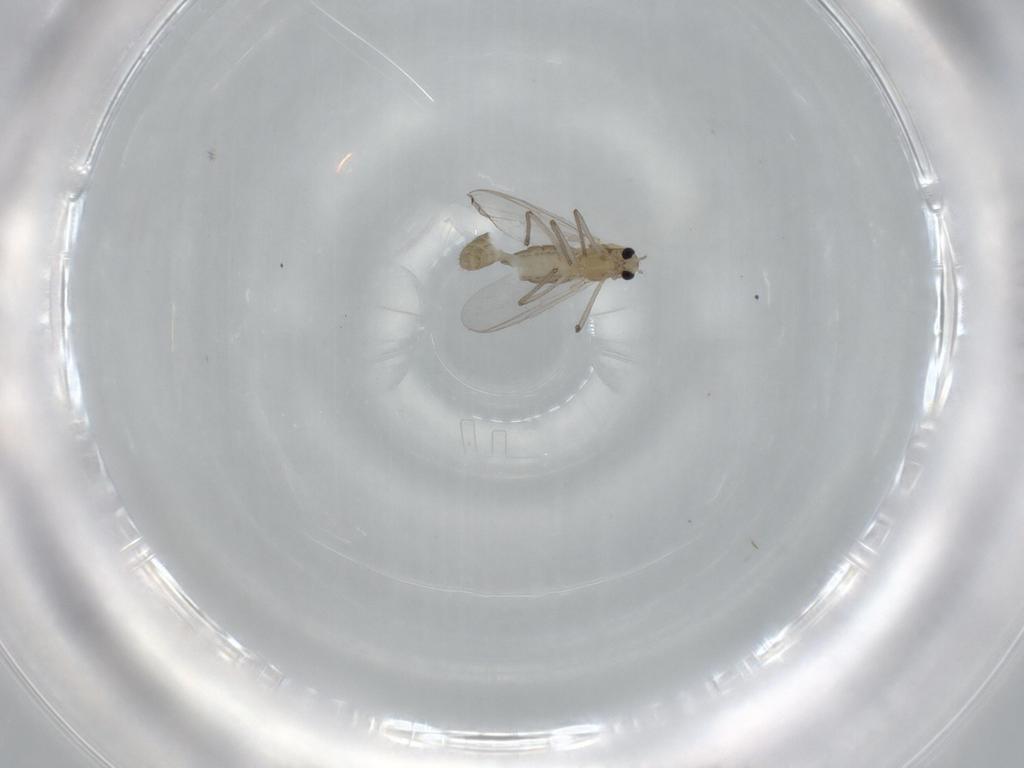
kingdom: Animalia
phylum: Arthropoda
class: Insecta
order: Diptera
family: Chironomidae
